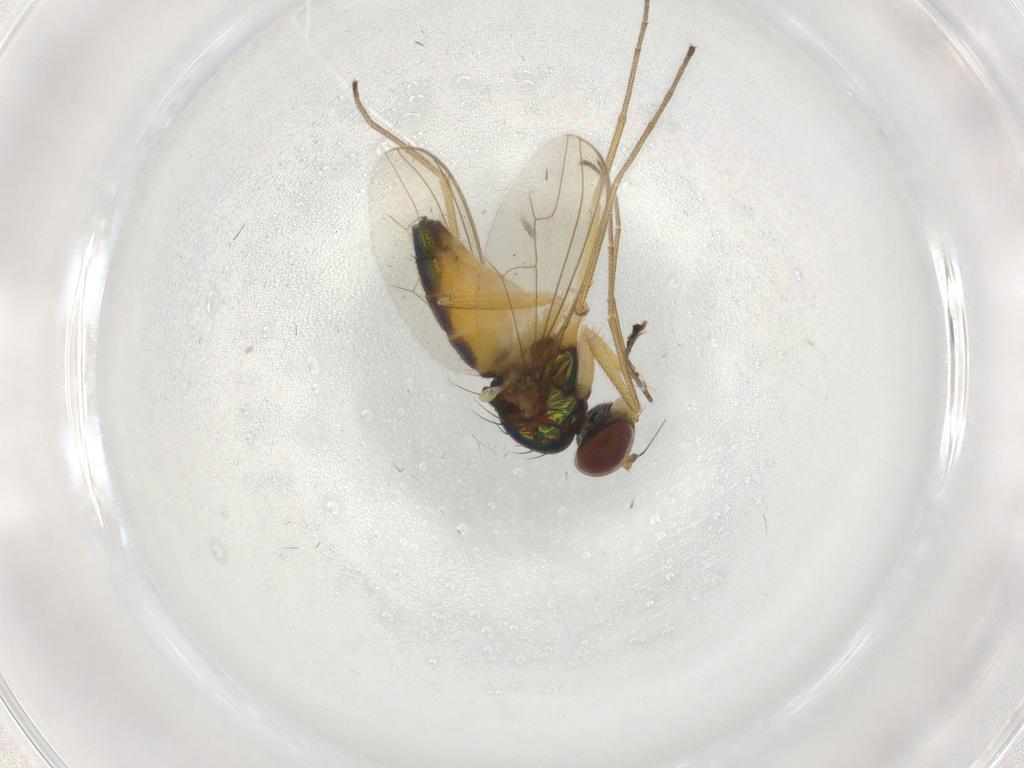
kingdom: Animalia
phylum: Arthropoda
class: Insecta
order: Diptera
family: Dolichopodidae
